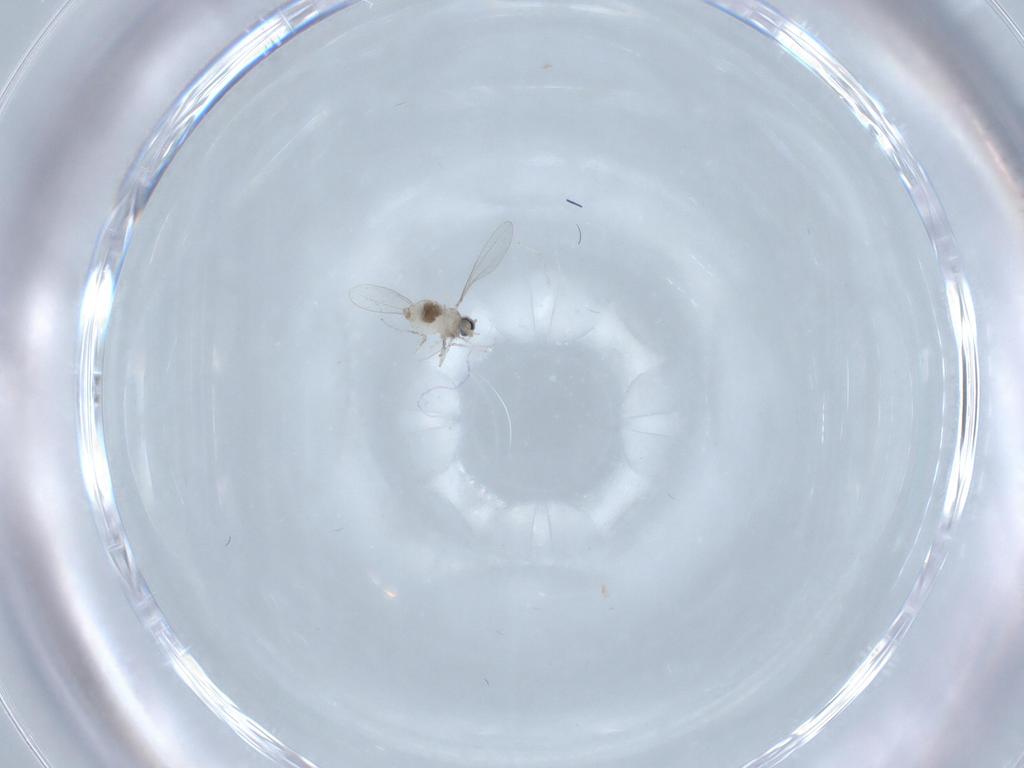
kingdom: Animalia
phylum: Arthropoda
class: Insecta
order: Diptera
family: Cecidomyiidae
